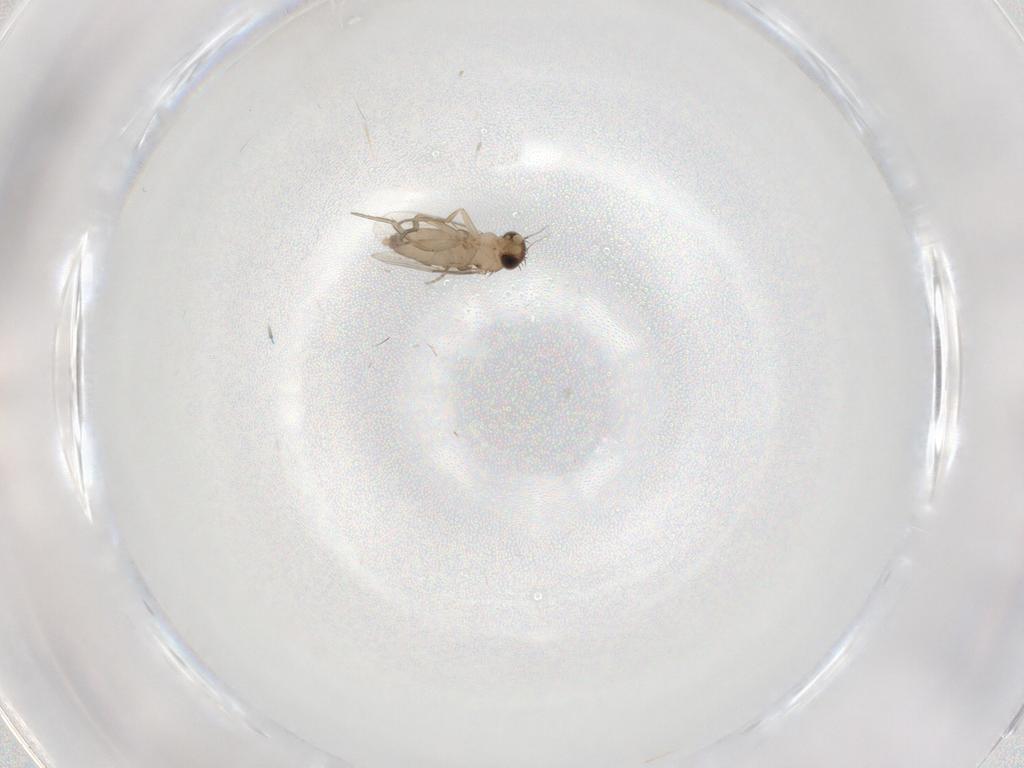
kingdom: Animalia
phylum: Arthropoda
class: Insecta
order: Diptera
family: Phoridae
